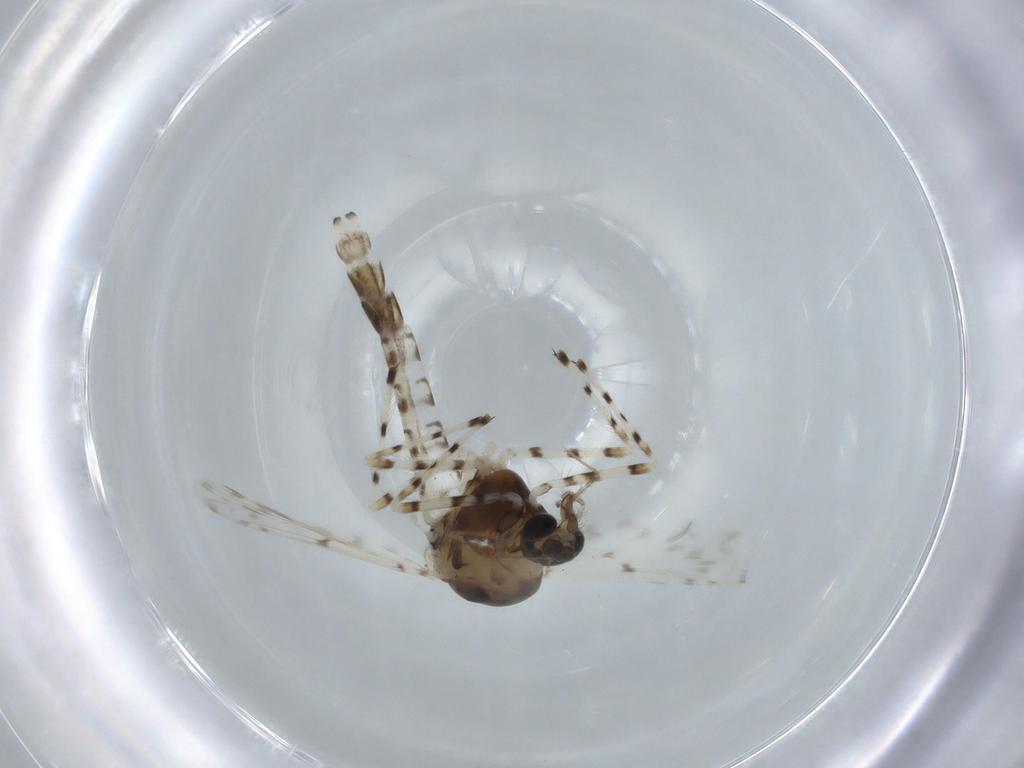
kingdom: Animalia
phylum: Arthropoda
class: Insecta
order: Diptera
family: Chironomidae
